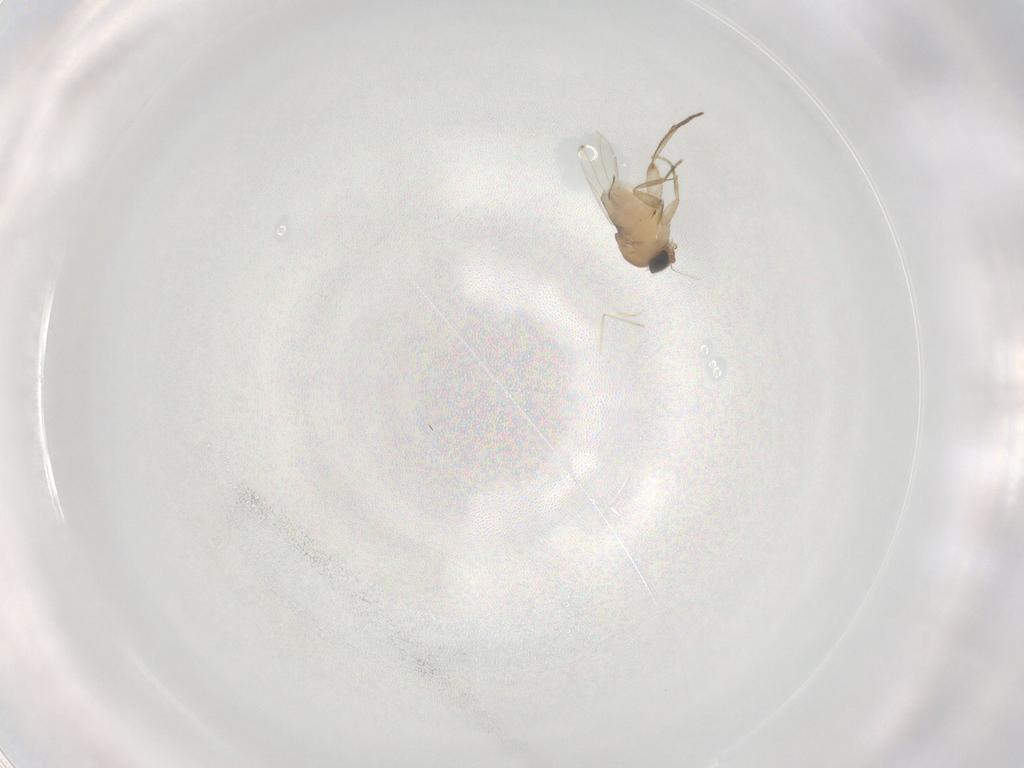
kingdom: Animalia
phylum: Arthropoda
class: Insecta
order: Diptera
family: Phoridae
